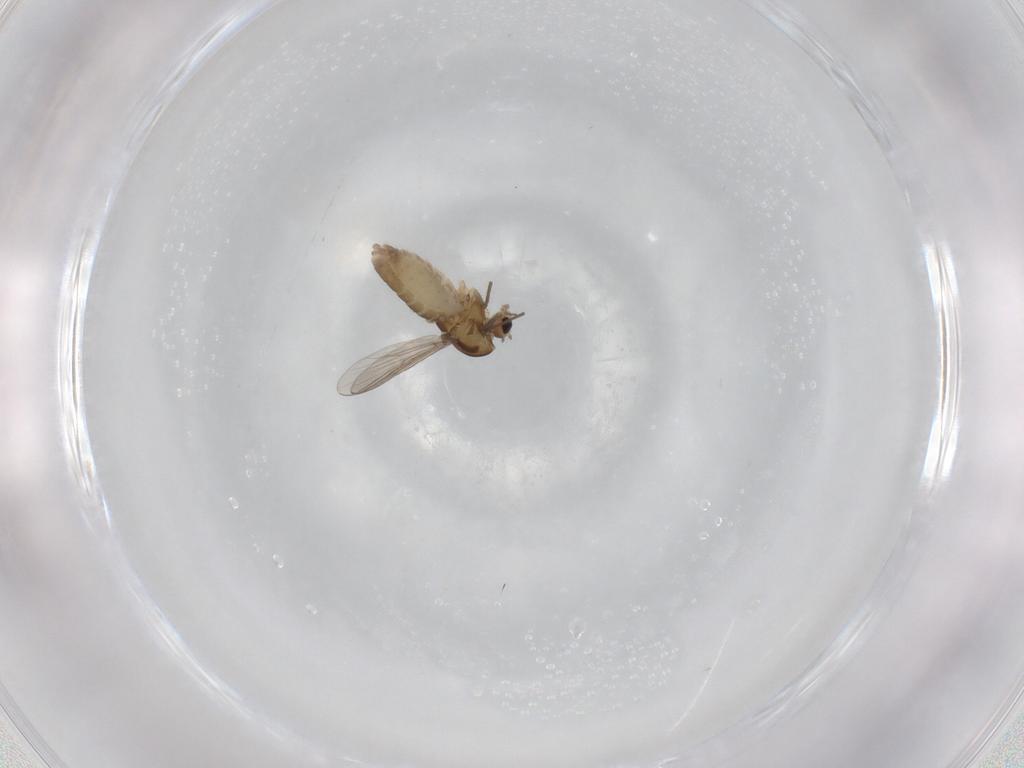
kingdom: Animalia
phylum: Arthropoda
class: Insecta
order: Diptera
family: Chironomidae
